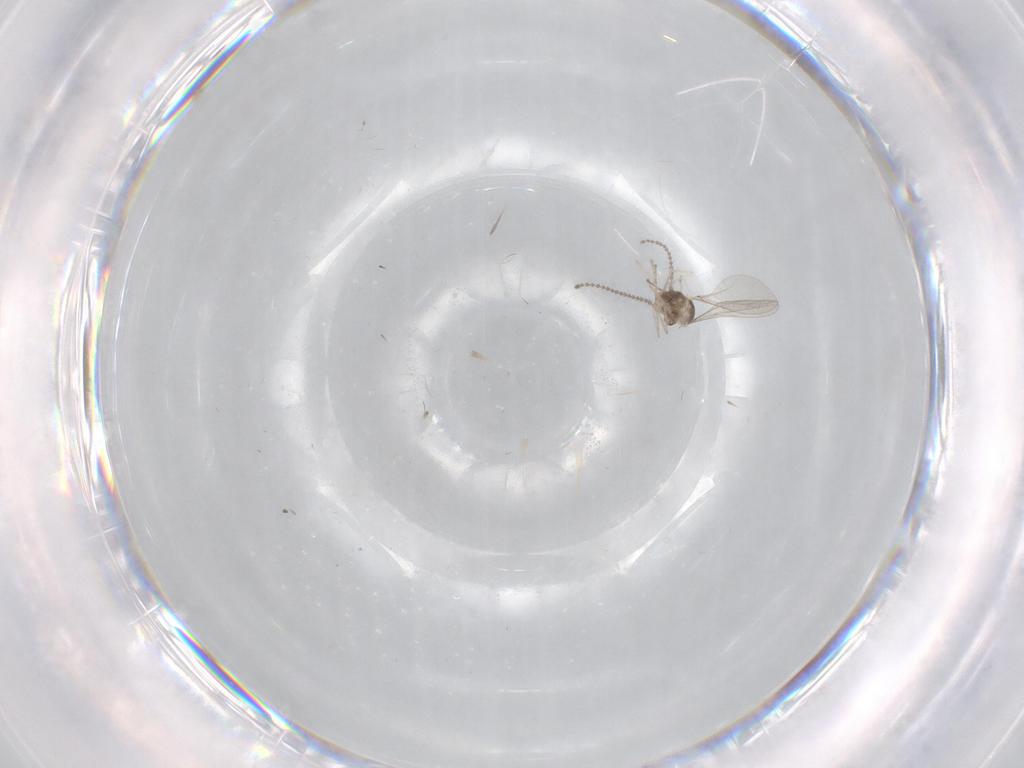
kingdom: Animalia
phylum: Arthropoda
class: Insecta
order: Diptera
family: Cecidomyiidae
